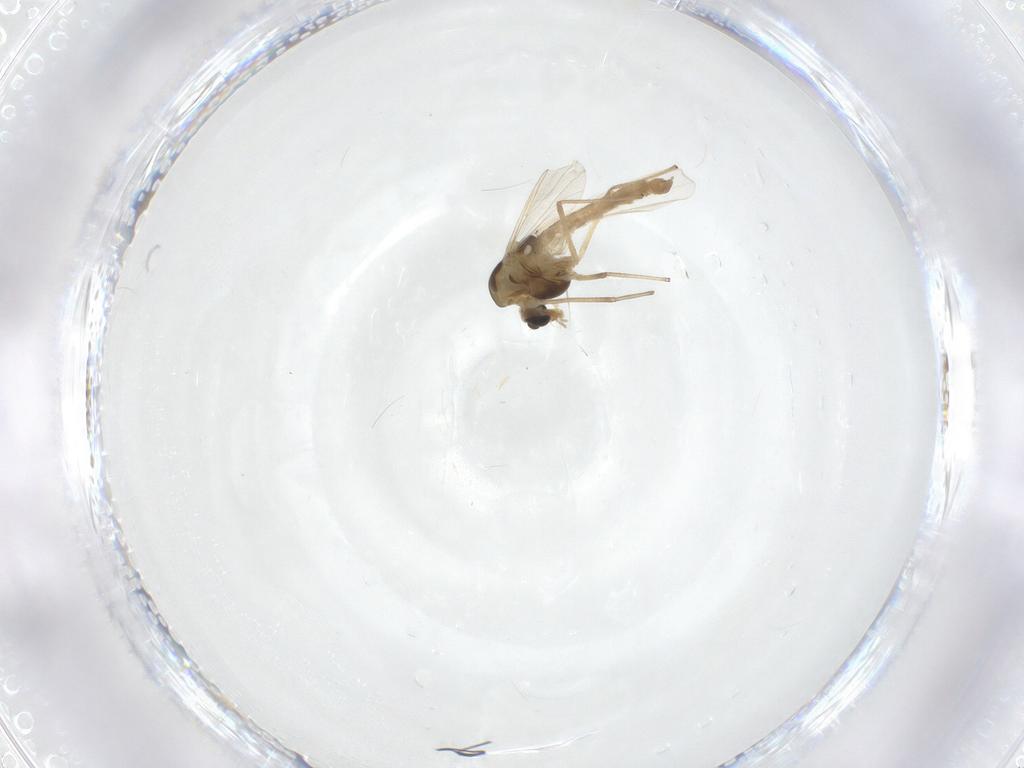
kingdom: Animalia
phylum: Arthropoda
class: Insecta
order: Diptera
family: Chironomidae
